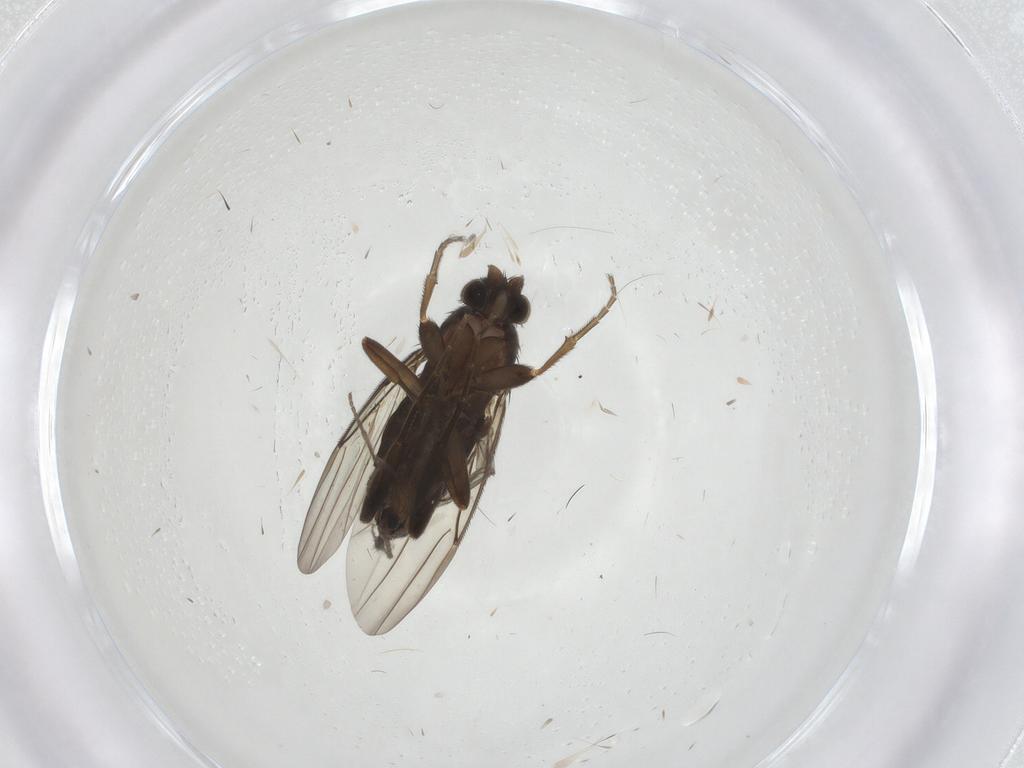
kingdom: Animalia
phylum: Arthropoda
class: Insecta
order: Diptera
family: Sciaridae
